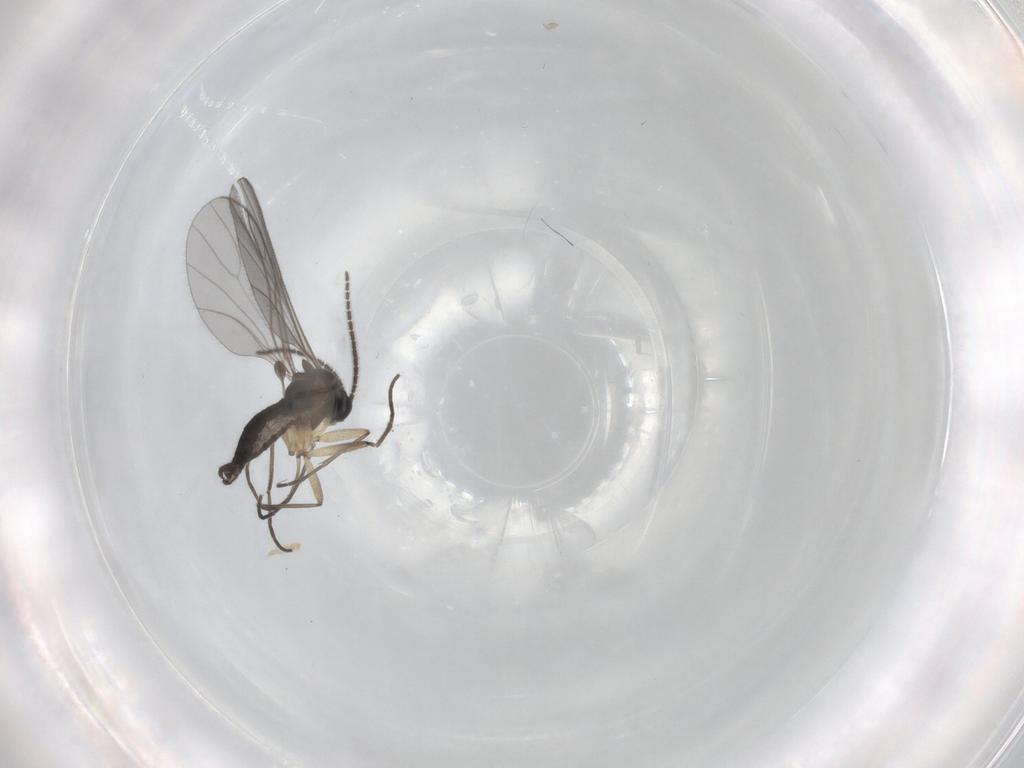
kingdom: Animalia
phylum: Arthropoda
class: Insecta
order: Diptera
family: Sciaridae
